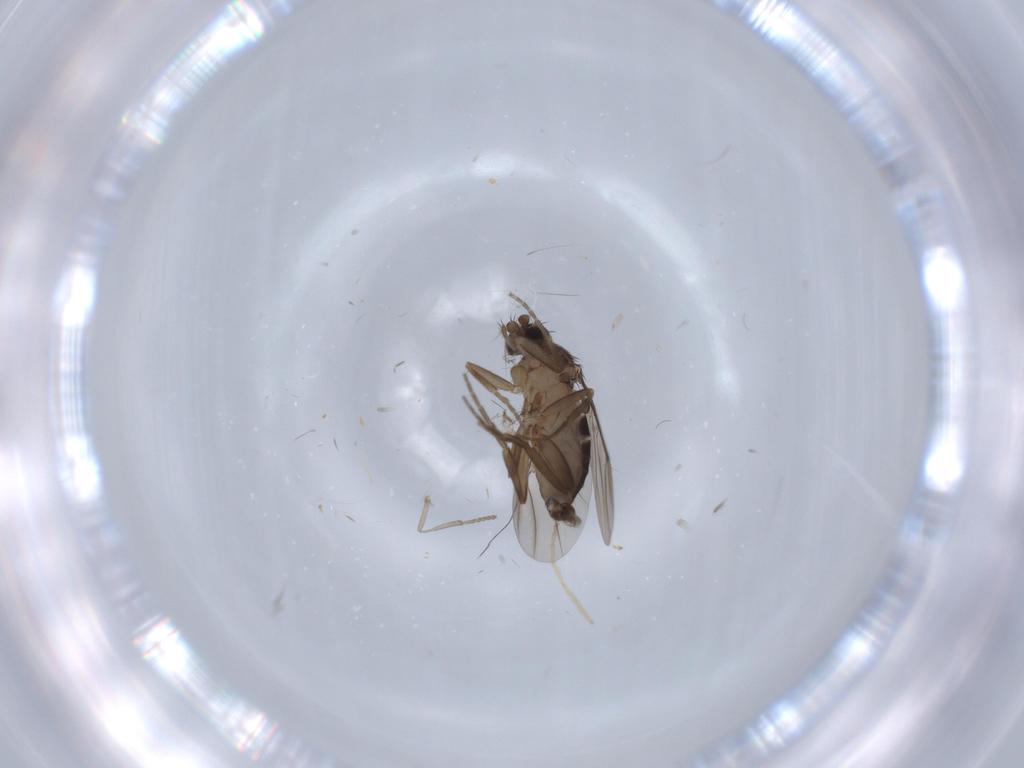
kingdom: Animalia
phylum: Arthropoda
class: Insecta
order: Diptera
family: Phoridae
